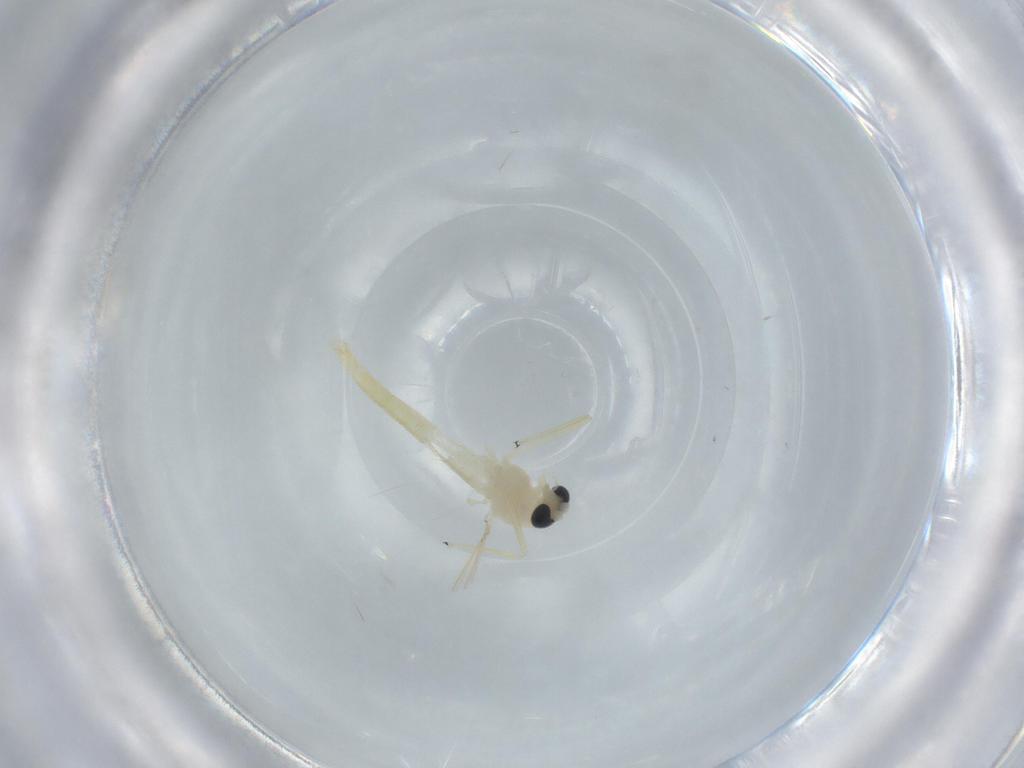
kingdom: Animalia
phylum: Arthropoda
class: Insecta
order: Diptera
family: Chironomidae
